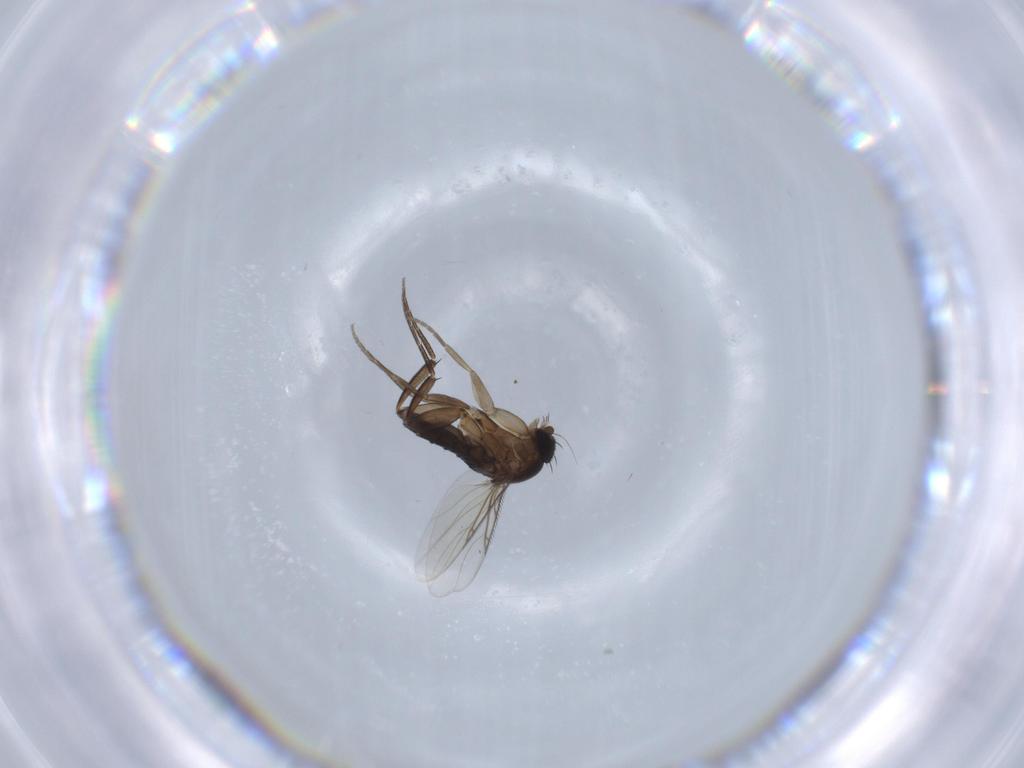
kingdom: Animalia
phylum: Arthropoda
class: Insecta
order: Diptera
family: Phoridae
